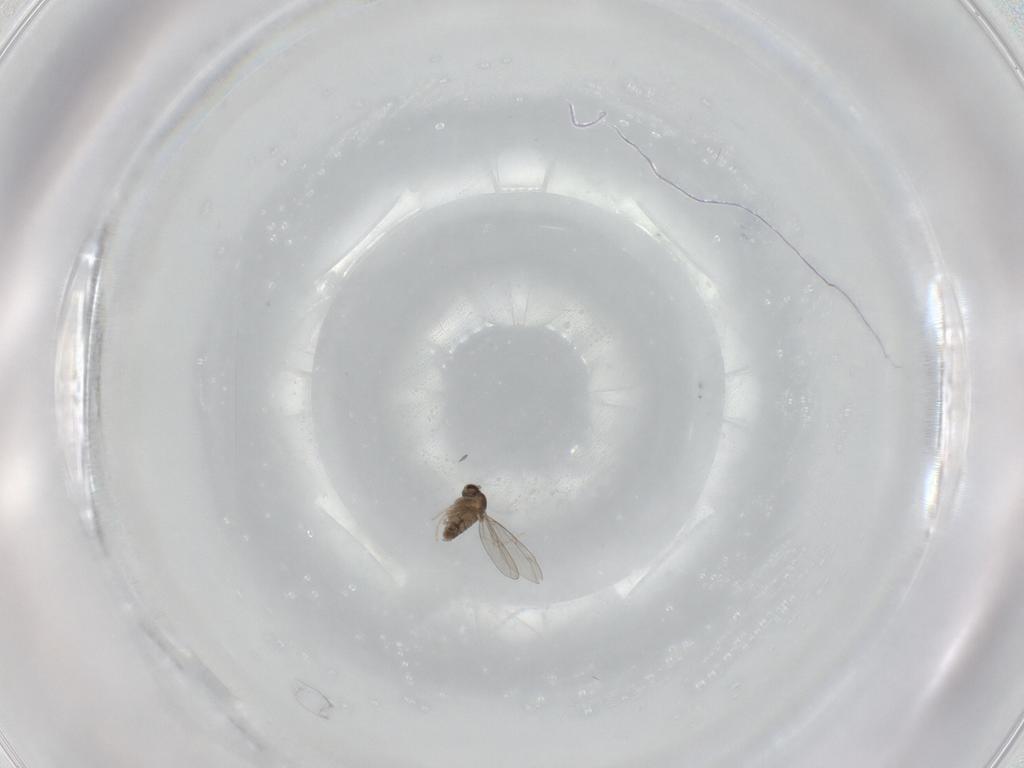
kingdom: Animalia
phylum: Arthropoda
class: Insecta
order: Diptera
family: Cecidomyiidae
